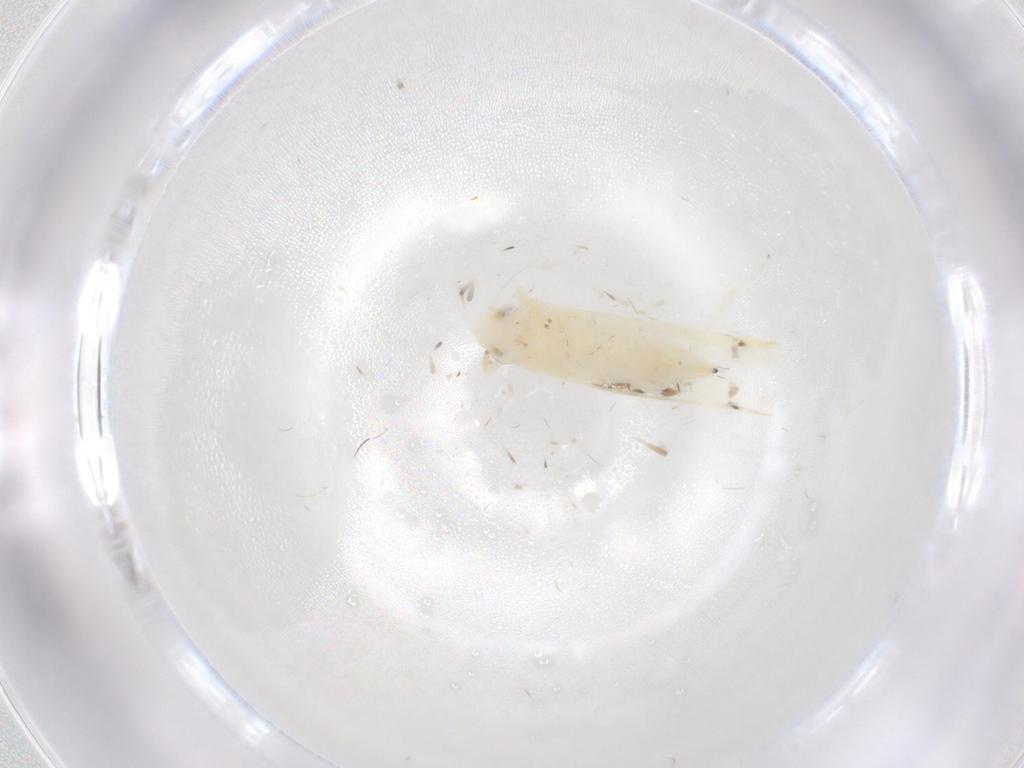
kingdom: Animalia
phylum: Arthropoda
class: Insecta
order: Hemiptera
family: Cicadellidae
